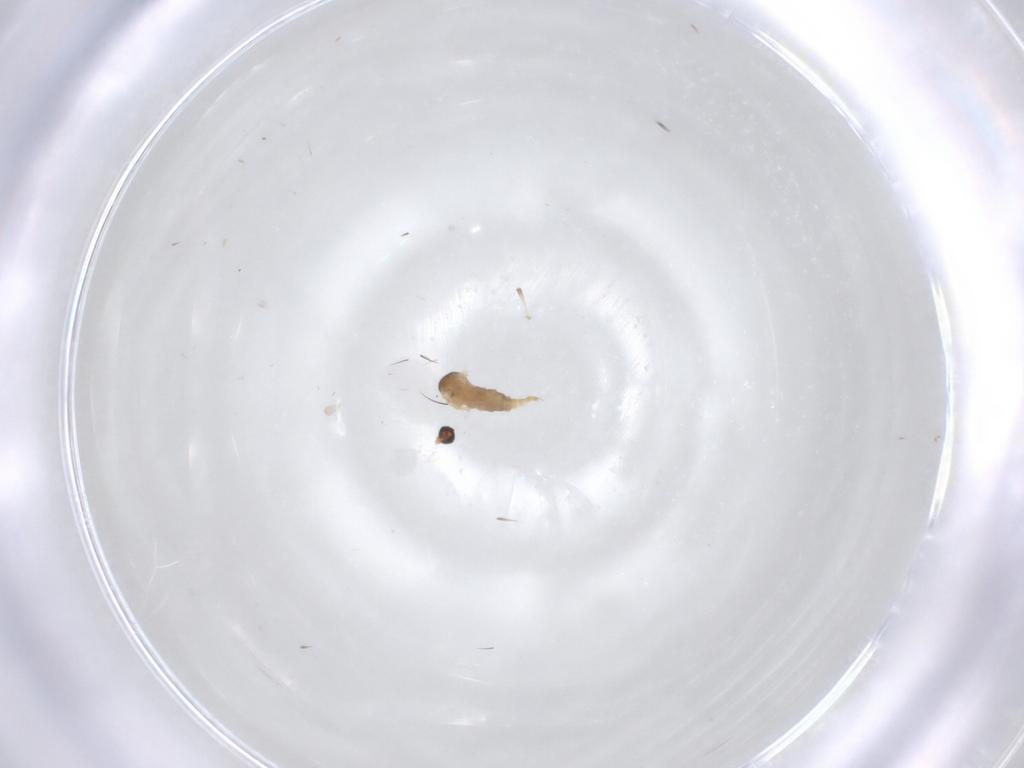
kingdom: Animalia
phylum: Arthropoda
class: Insecta
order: Diptera
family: Cecidomyiidae
